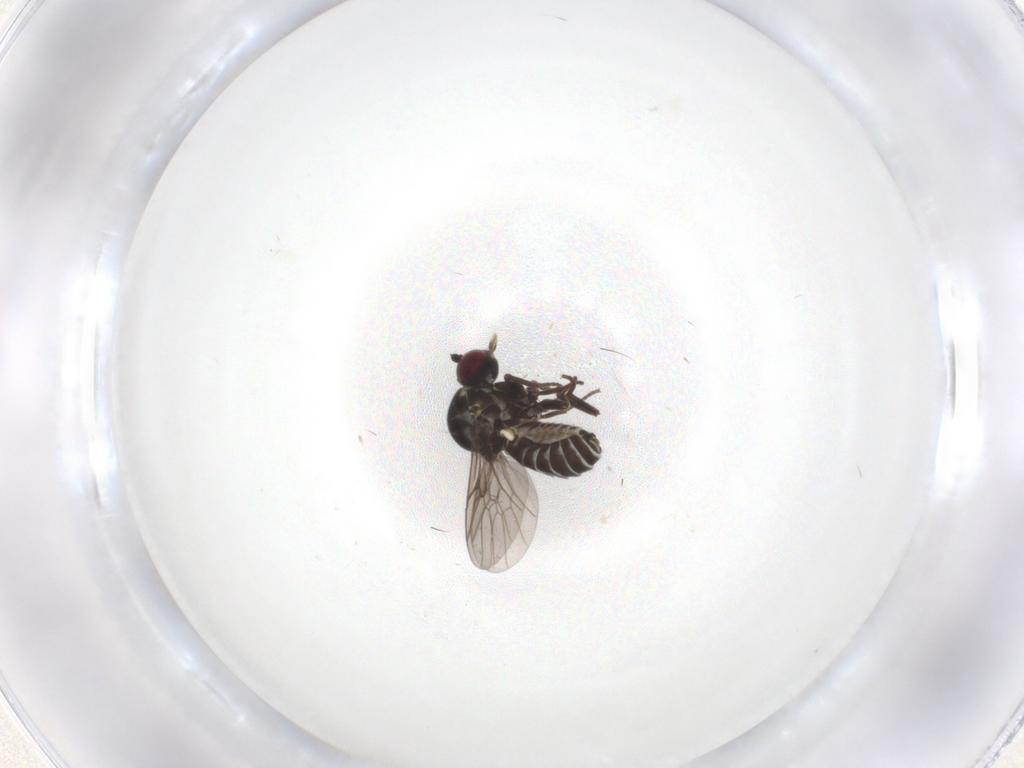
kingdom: Animalia
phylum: Arthropoda
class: Insecta
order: Diptera
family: Bombyliidae
